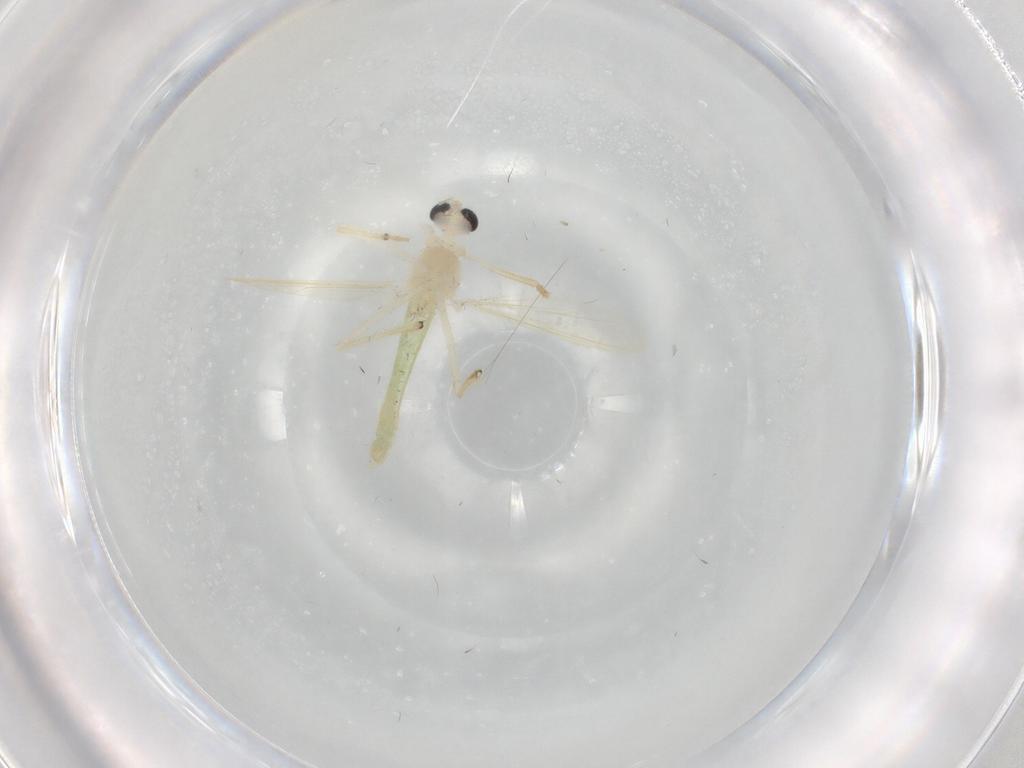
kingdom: Animalia
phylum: Arthropoda
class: Insecta
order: Diptera
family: Chironomidae
